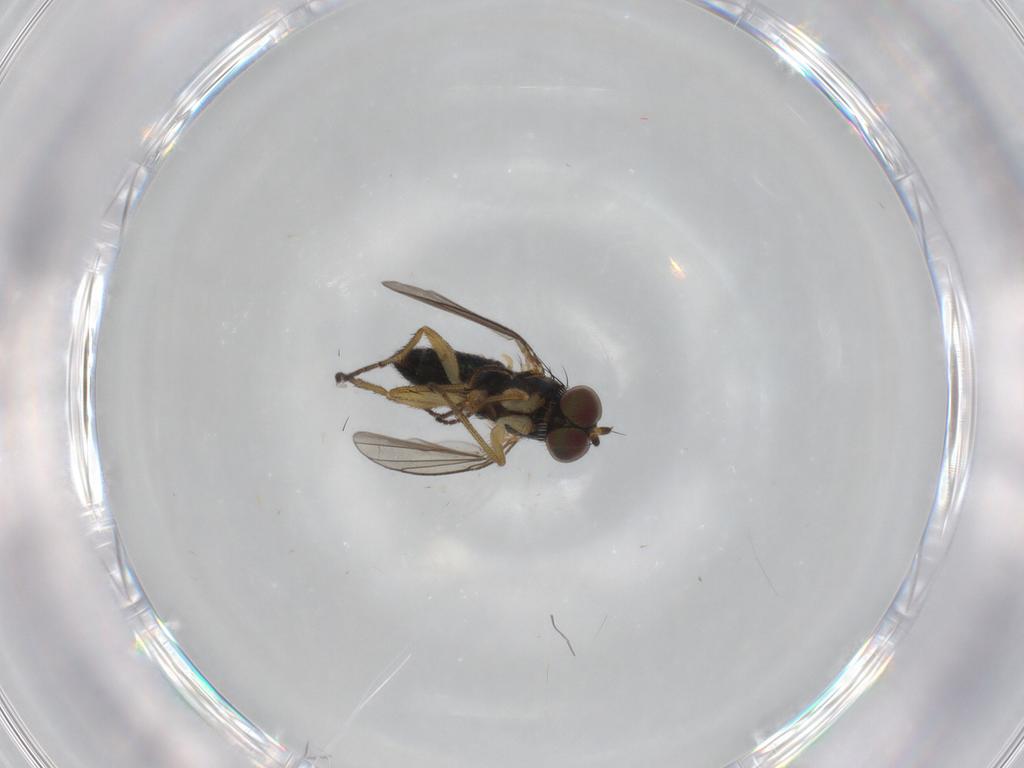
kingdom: Animalia
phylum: Arthropoda
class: Insecta
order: Diptera
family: Dolichopodidae
